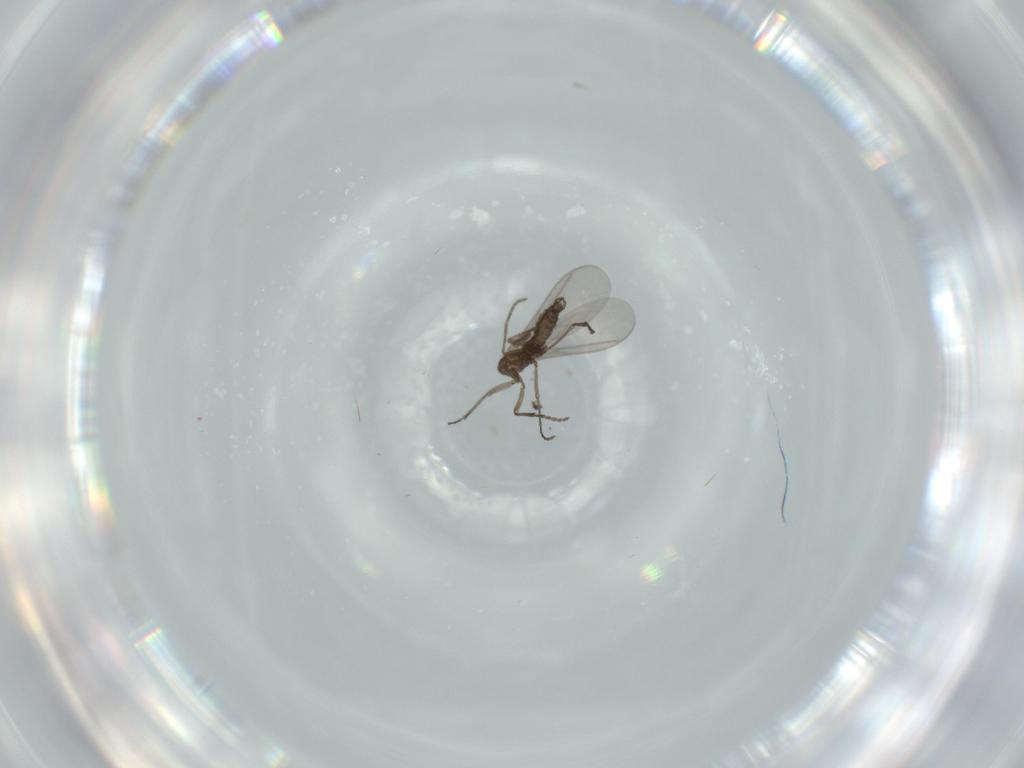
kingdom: Animalia
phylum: Arthropoda
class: Insecta
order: Diptera
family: Sciaridae
